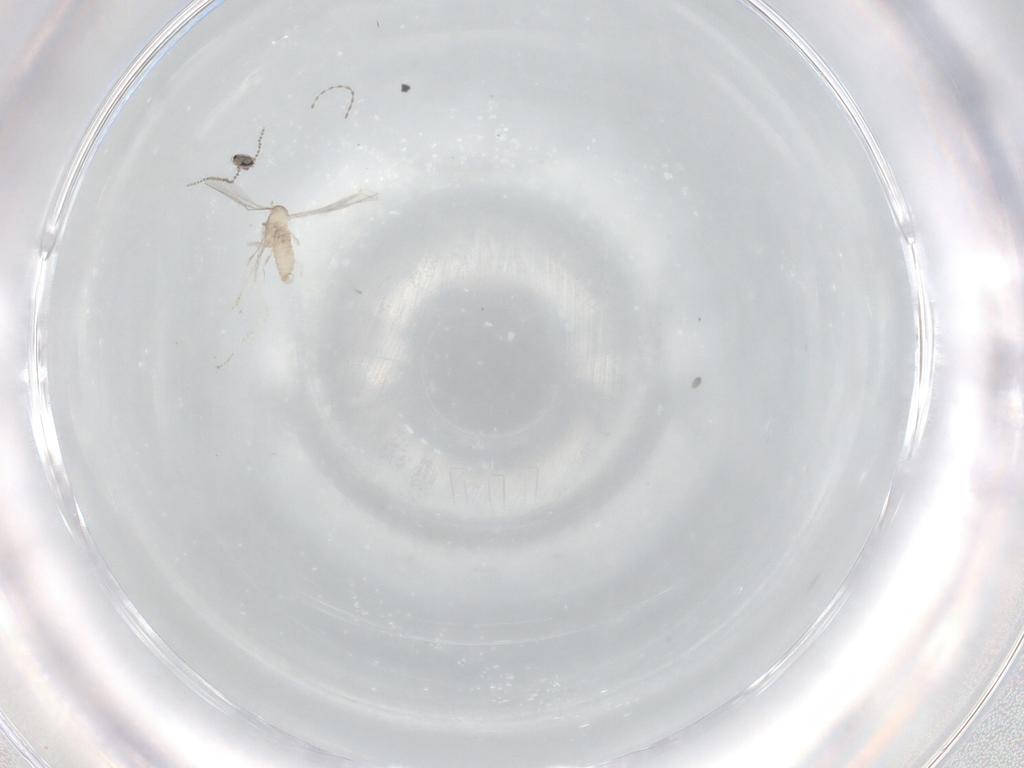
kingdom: Animalia
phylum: Arthropoda
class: Insecta
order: Diptera
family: Cecidomyiidae
